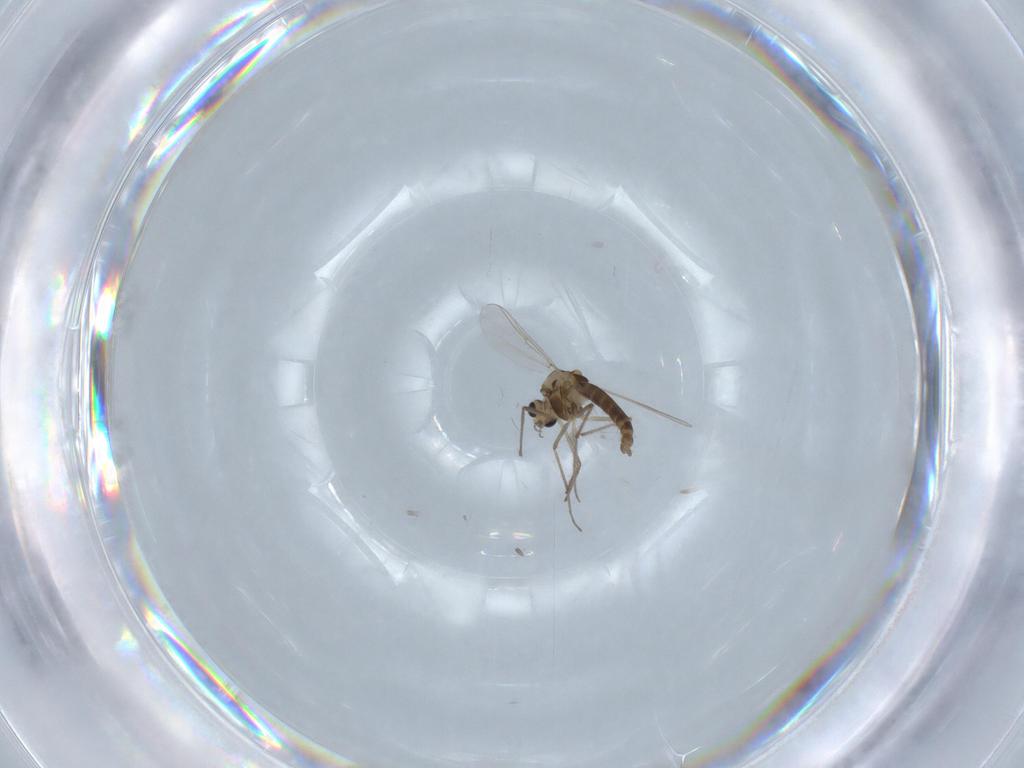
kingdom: Animalia
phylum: Arthropoda
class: Insecta
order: Diptera
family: Chironomidae
